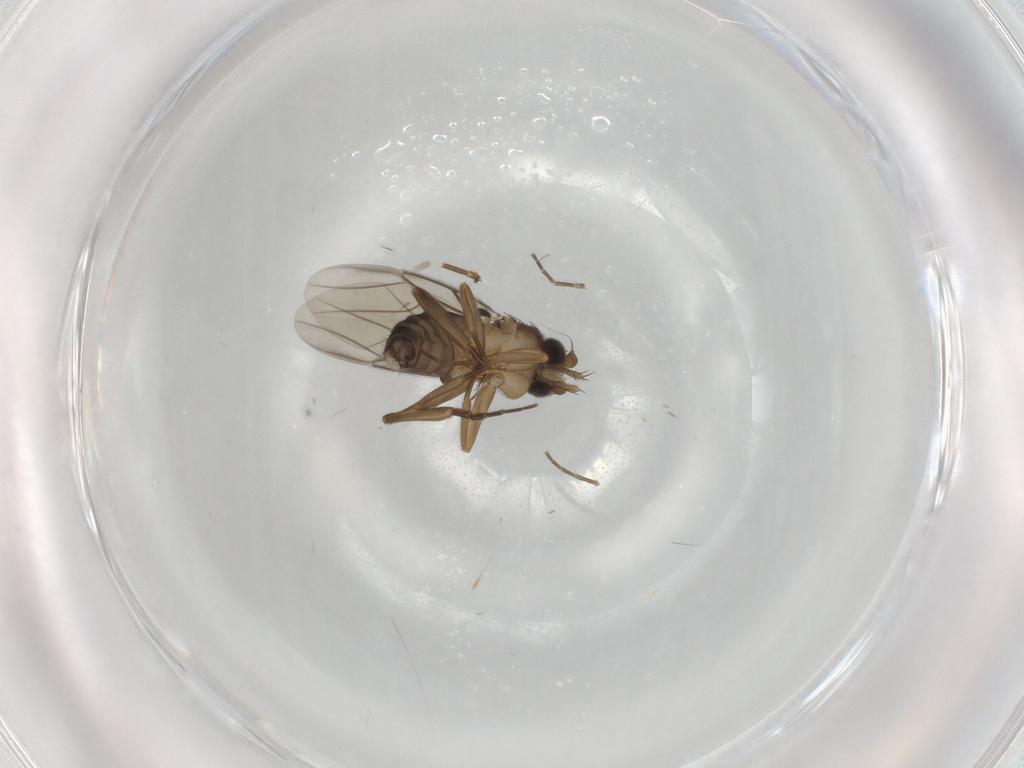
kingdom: Animalia
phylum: Arthropoda
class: Insecta
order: Diptera
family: Phoridae
